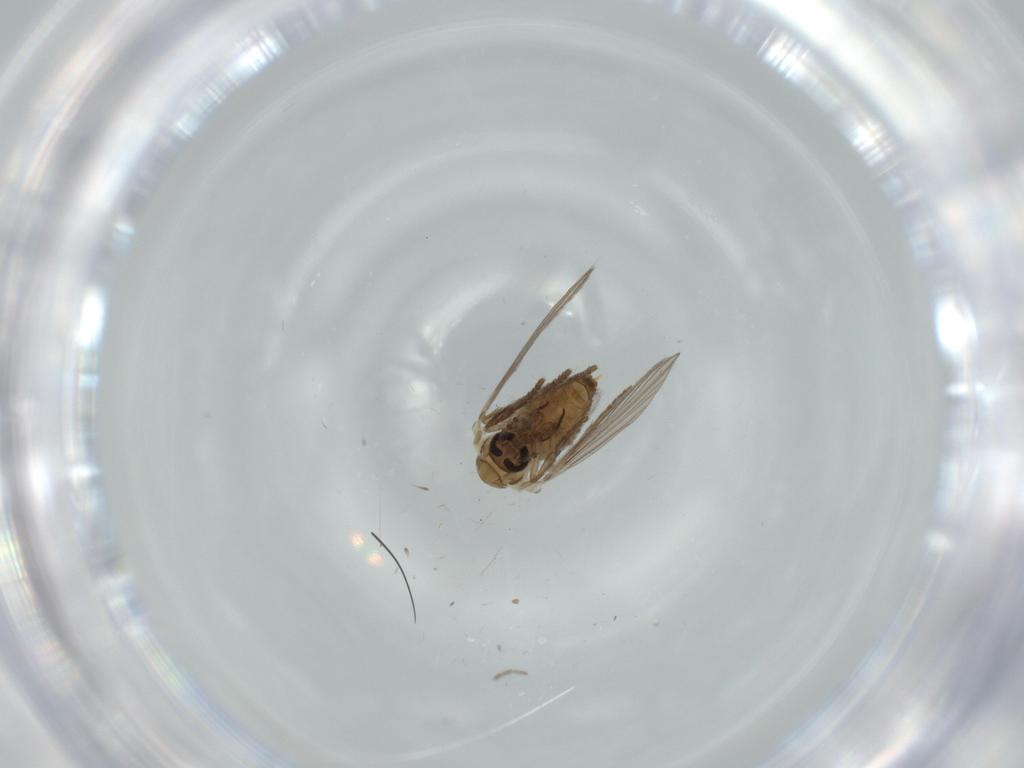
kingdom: Animalia
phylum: Arthropoda
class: Insecta
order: Diptera
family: Psychodidae
